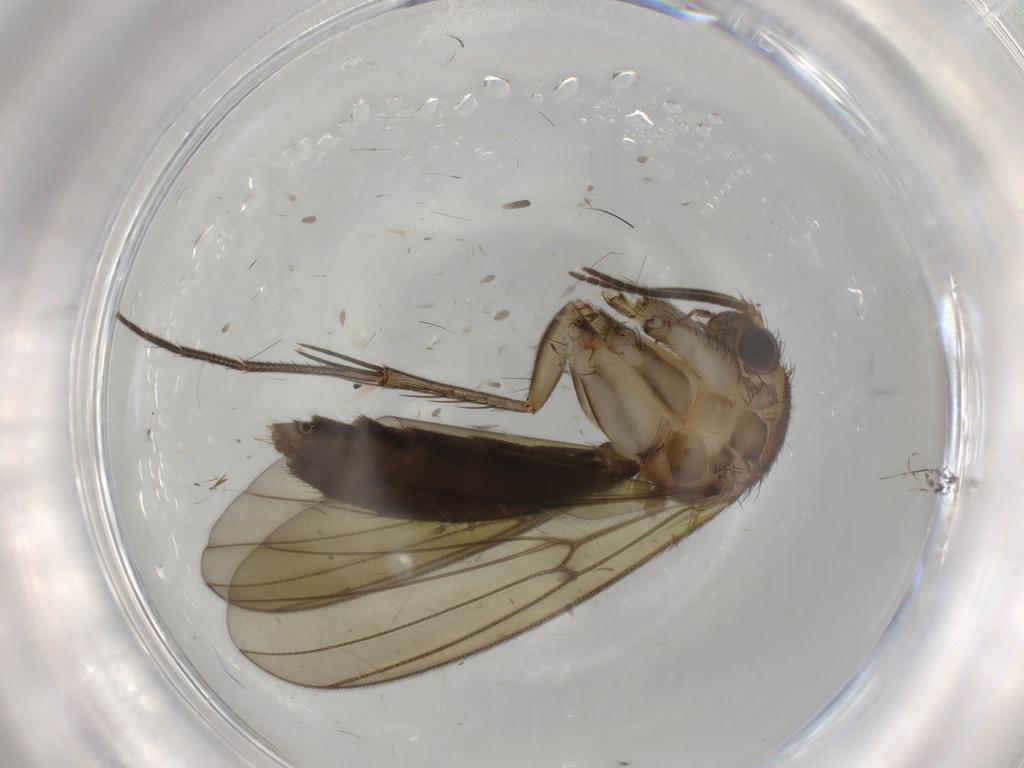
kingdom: Animalia
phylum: Arthropoda
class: Insecta
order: Diptera
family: Mycetophilidae
